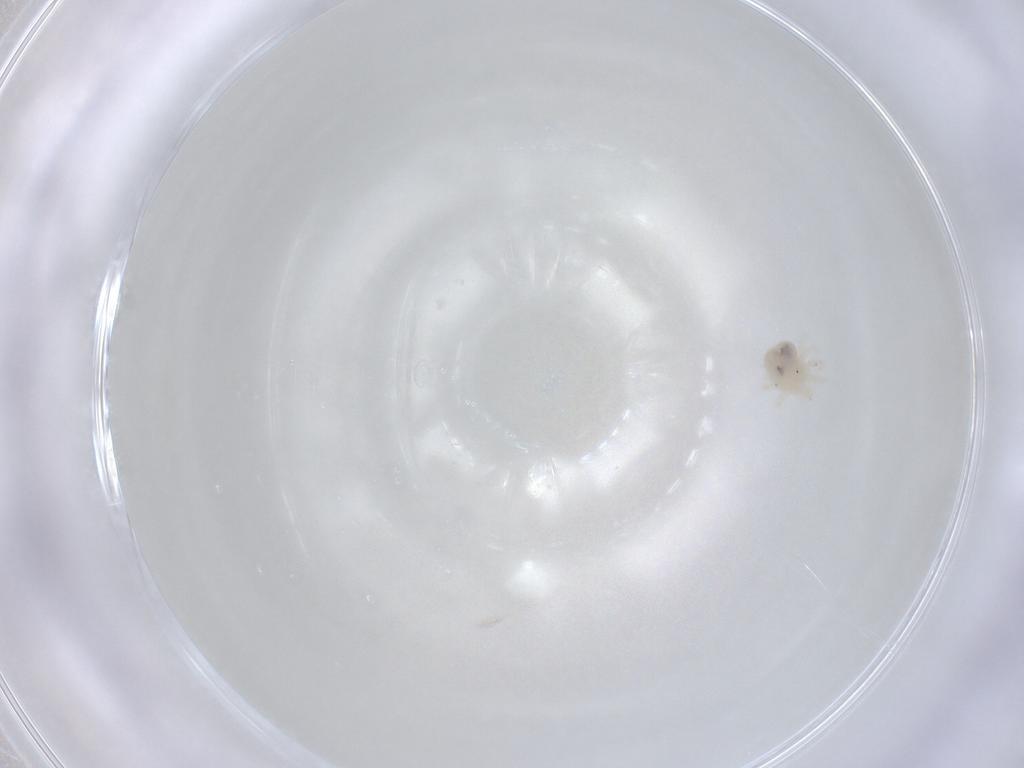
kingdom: Animalia
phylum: Arthropoda
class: Arachnida
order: Trombidiformes
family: Anystidae
